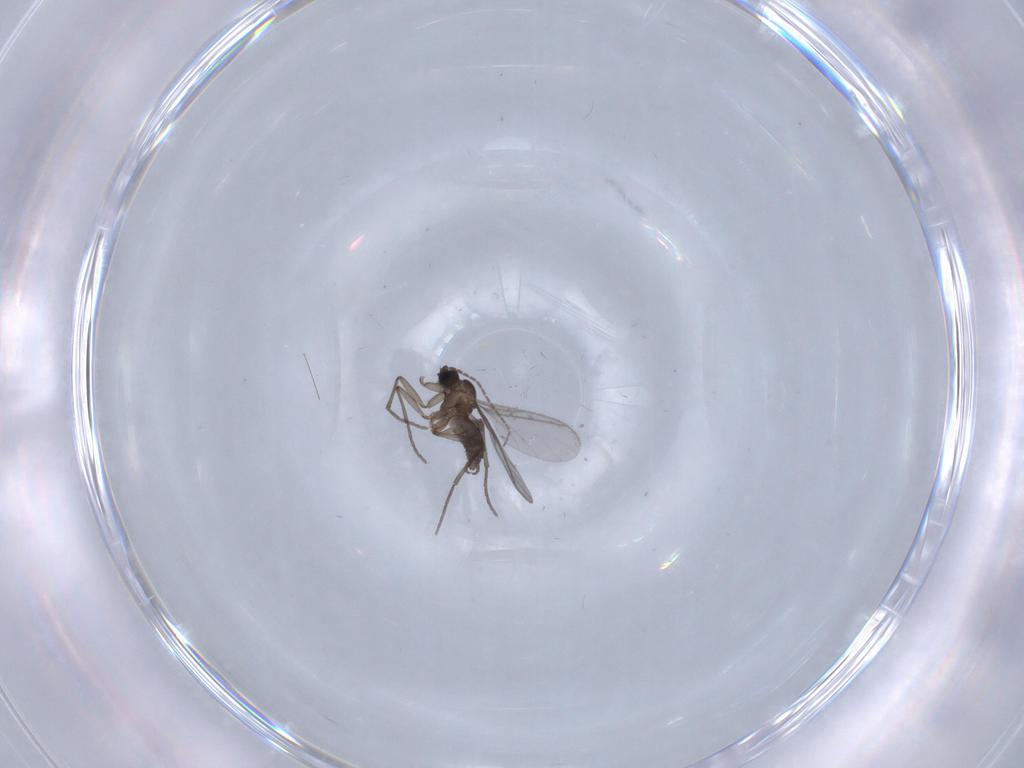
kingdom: Animalia
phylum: Arthropoda
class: Insecta
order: Diptera
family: Sciaridae
